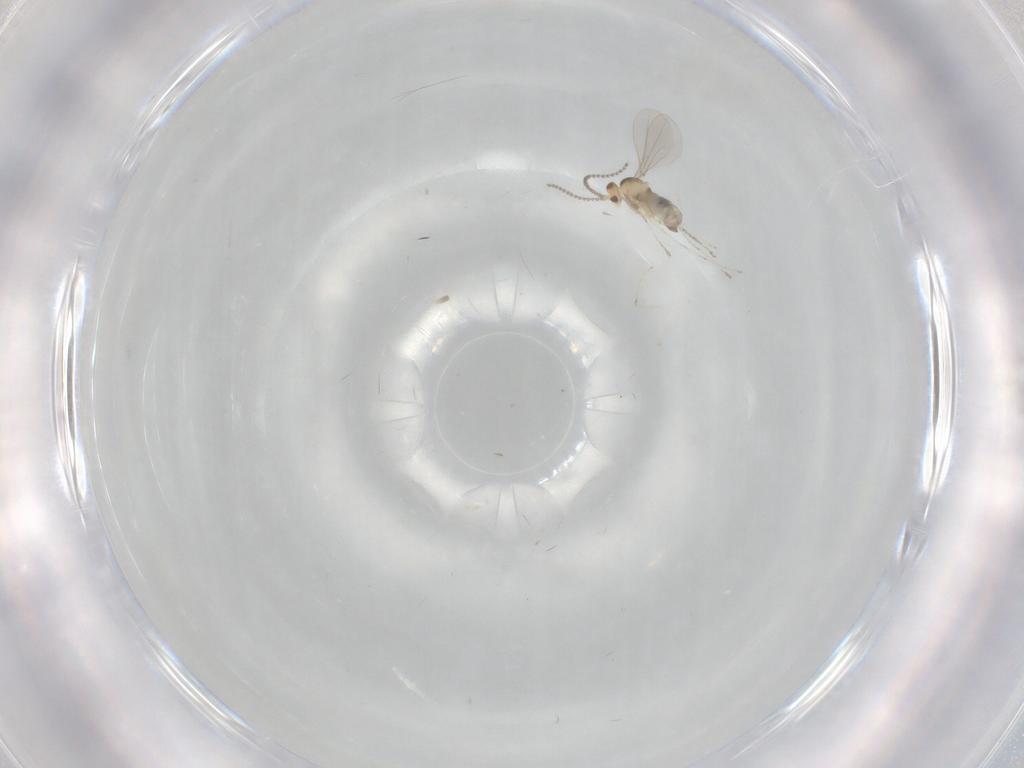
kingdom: Animalia
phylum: Arthropoda
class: Insecta
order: Diptera
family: Cecidomyiidae
